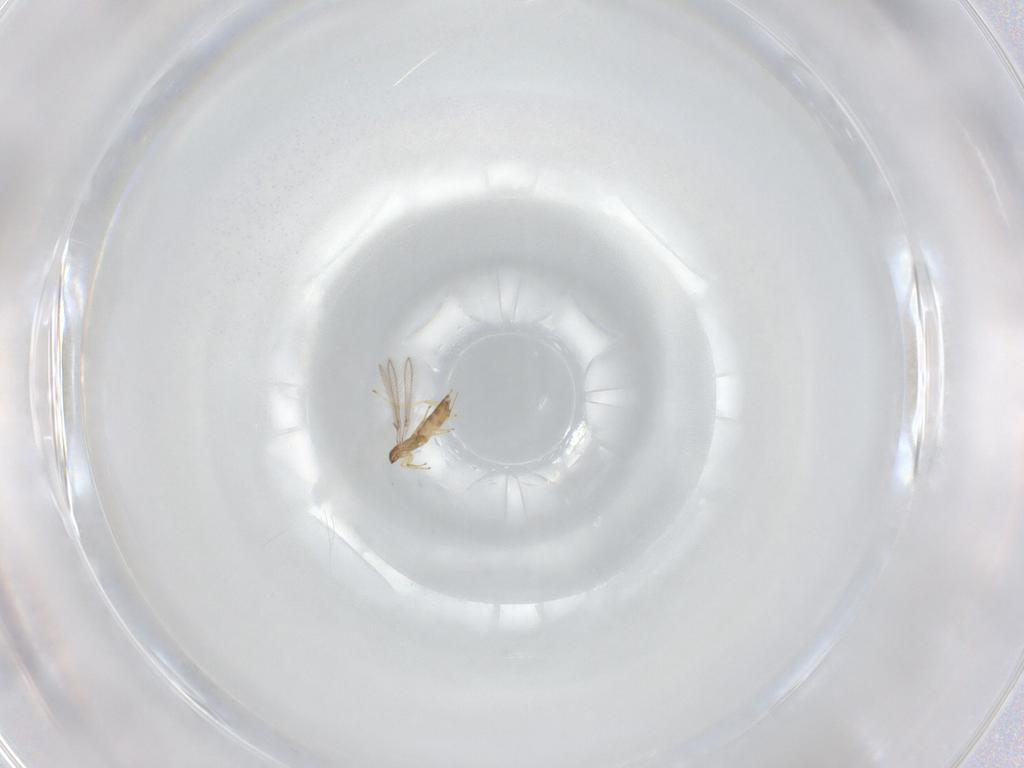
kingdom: Animalia
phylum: Arthropoda
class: Insecta
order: Hymenoptera
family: Mymaridae
